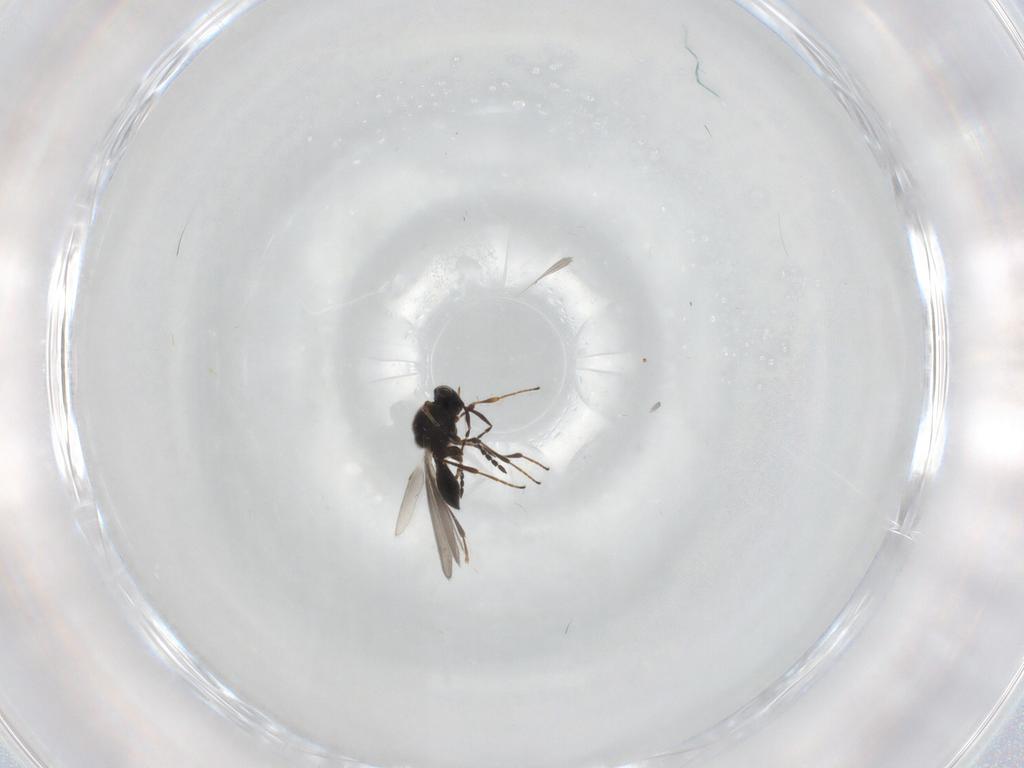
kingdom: Animalia
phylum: Arthropoda
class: Insecta
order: Hymenoptera
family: Platygastridae
